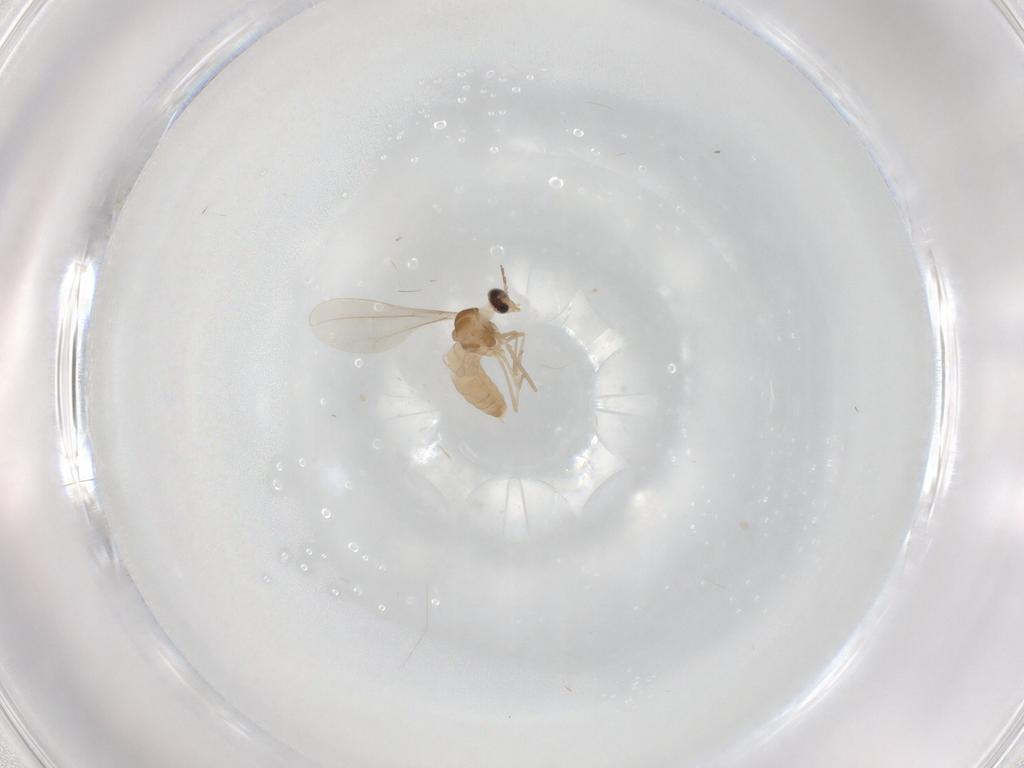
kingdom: Animalia
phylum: Arthropoda
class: Insecta
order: Diptera
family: Cecidomyiidae
